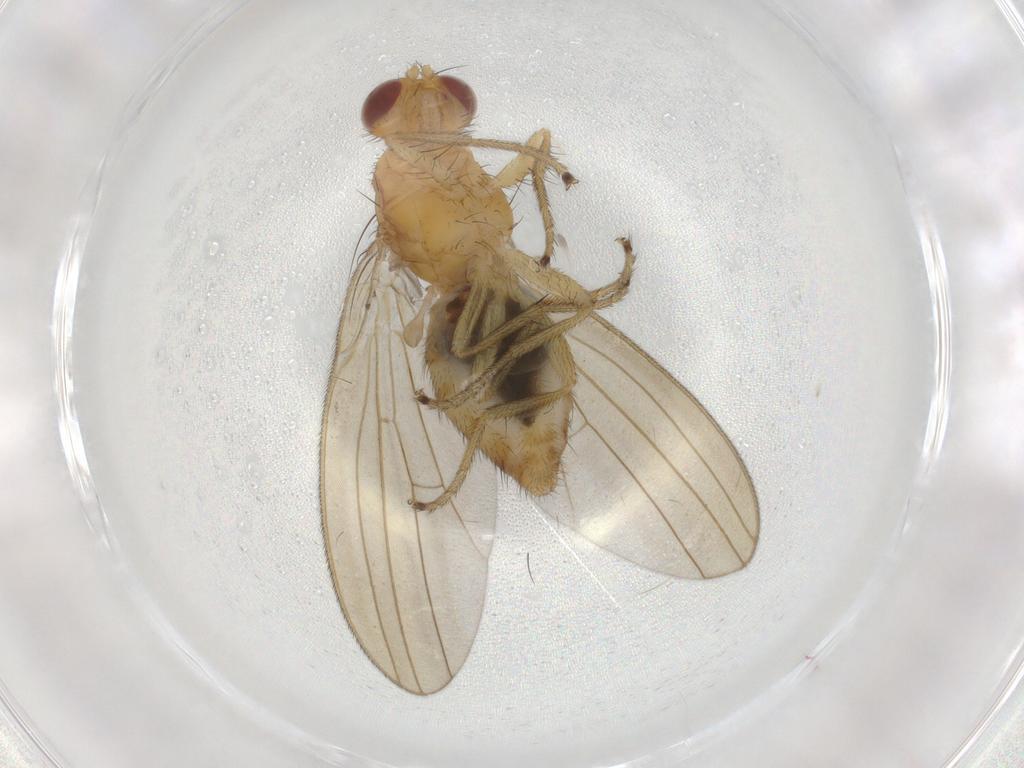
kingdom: Animalia
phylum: Arthropoda
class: Insecta
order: Diptera
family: Natalimyzidae
